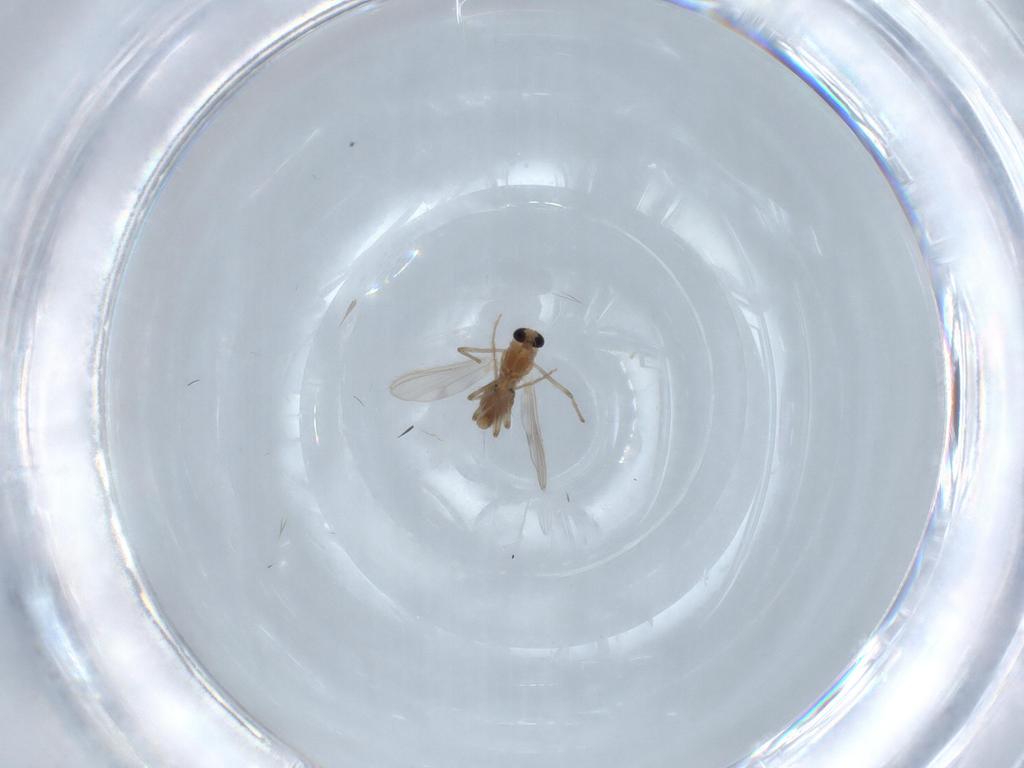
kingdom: Animalia
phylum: Arthropoda
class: Insecta
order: Diptera
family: Chironomidae
